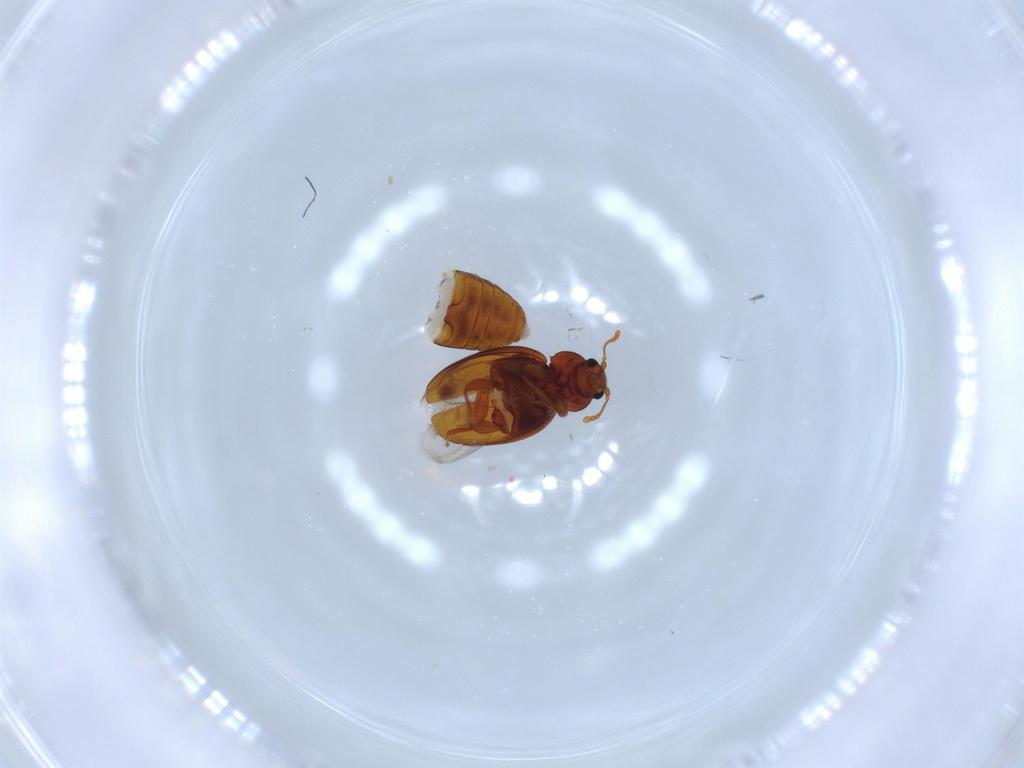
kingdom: Animalia
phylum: Arthropoda
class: Insecta
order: Coleoptera
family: Latridiidae
